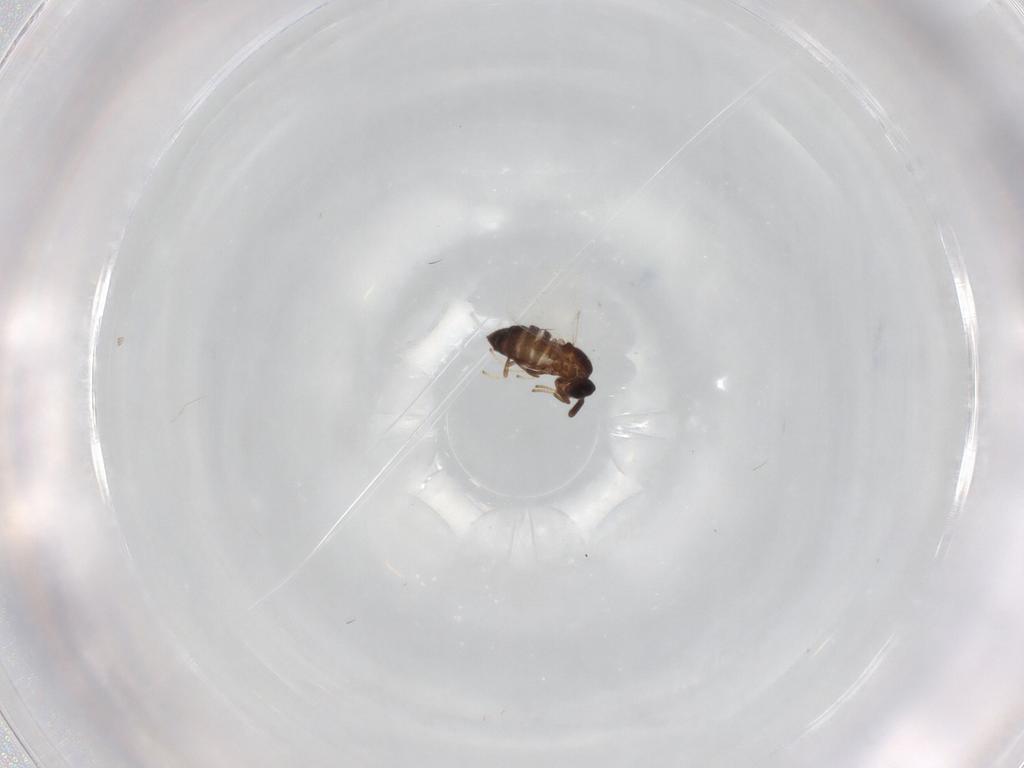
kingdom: Animalia
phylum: Arthropoda
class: Insecta
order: Diptera
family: Scatopsidae
